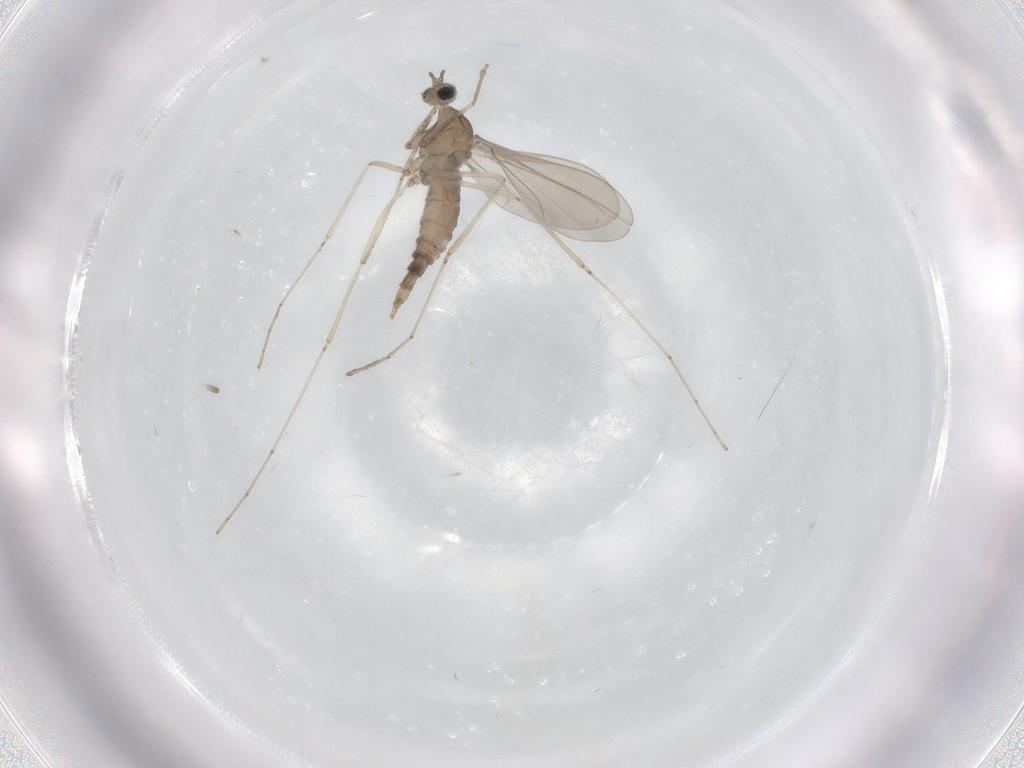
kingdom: Animalia
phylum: Arthropoda
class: Insecta
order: Diptera
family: Cecidomyiidae
